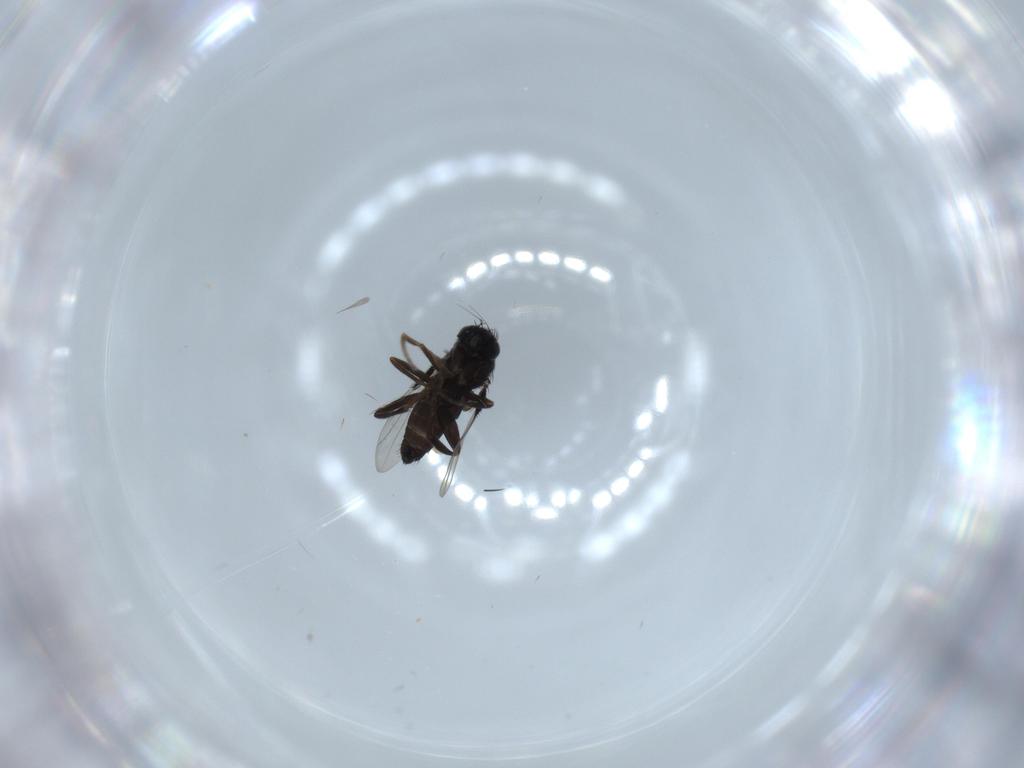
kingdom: Animalia
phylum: Arthropoda
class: Insecta
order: Diptera
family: Phoridae
